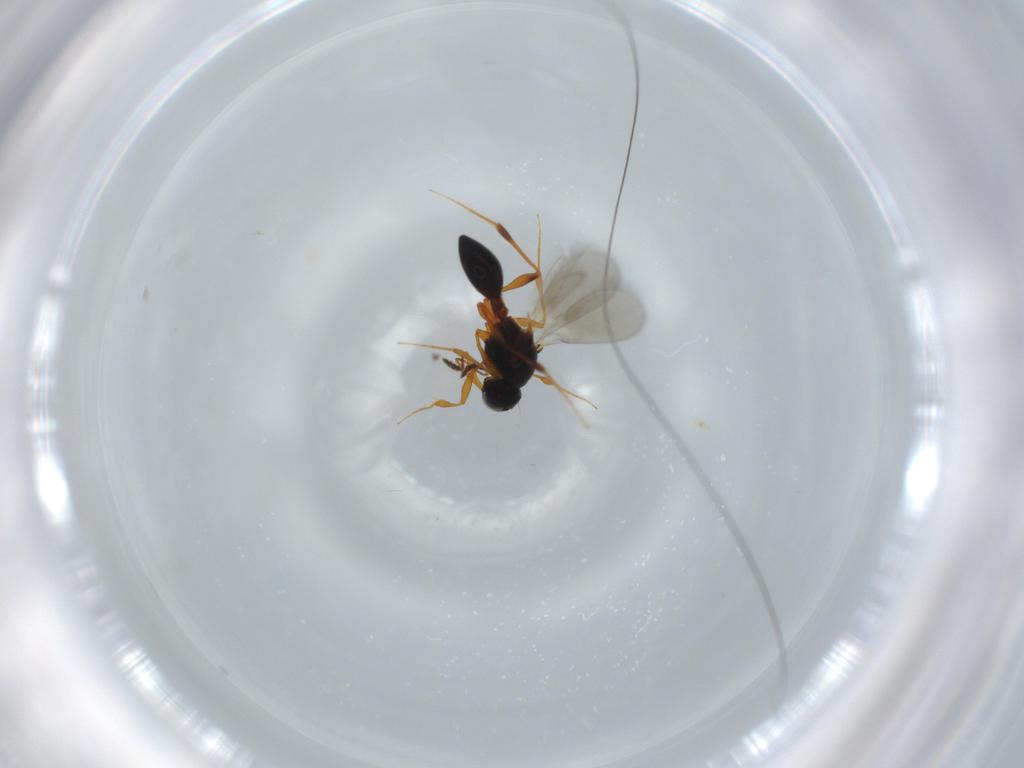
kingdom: Animalia
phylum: Arthropoda
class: Insecta
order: Hymenoptera
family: Platygastridae
